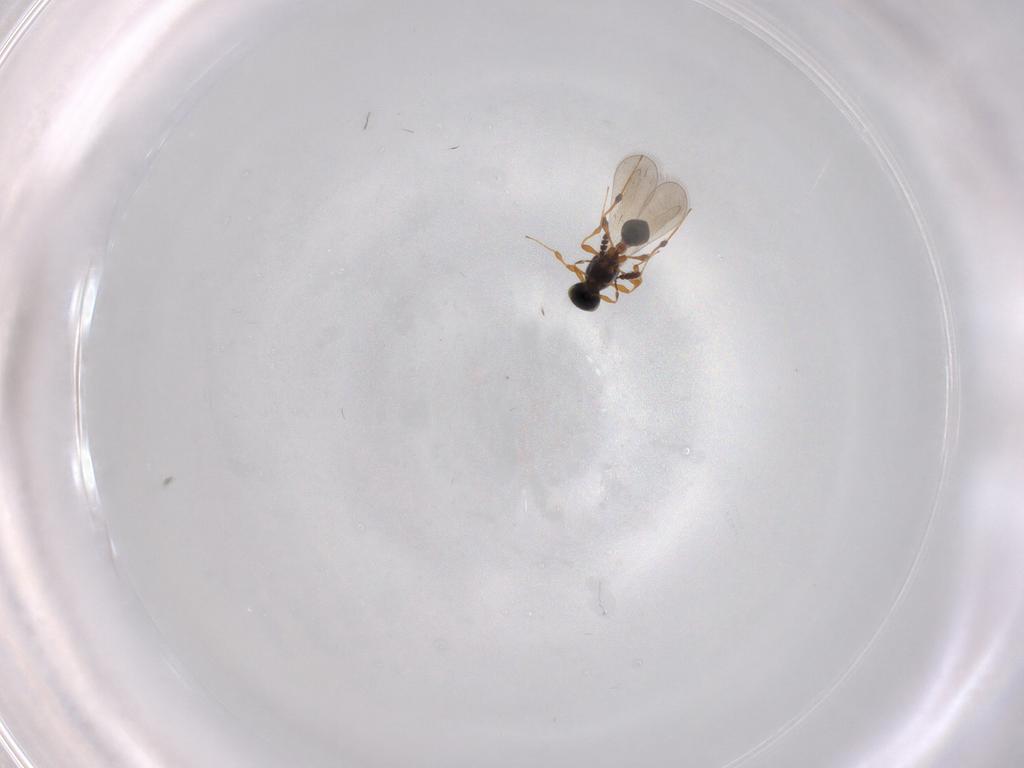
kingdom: Animalia
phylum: Arthropoda
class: Insecta
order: Hymenoptera
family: Platygastridae
